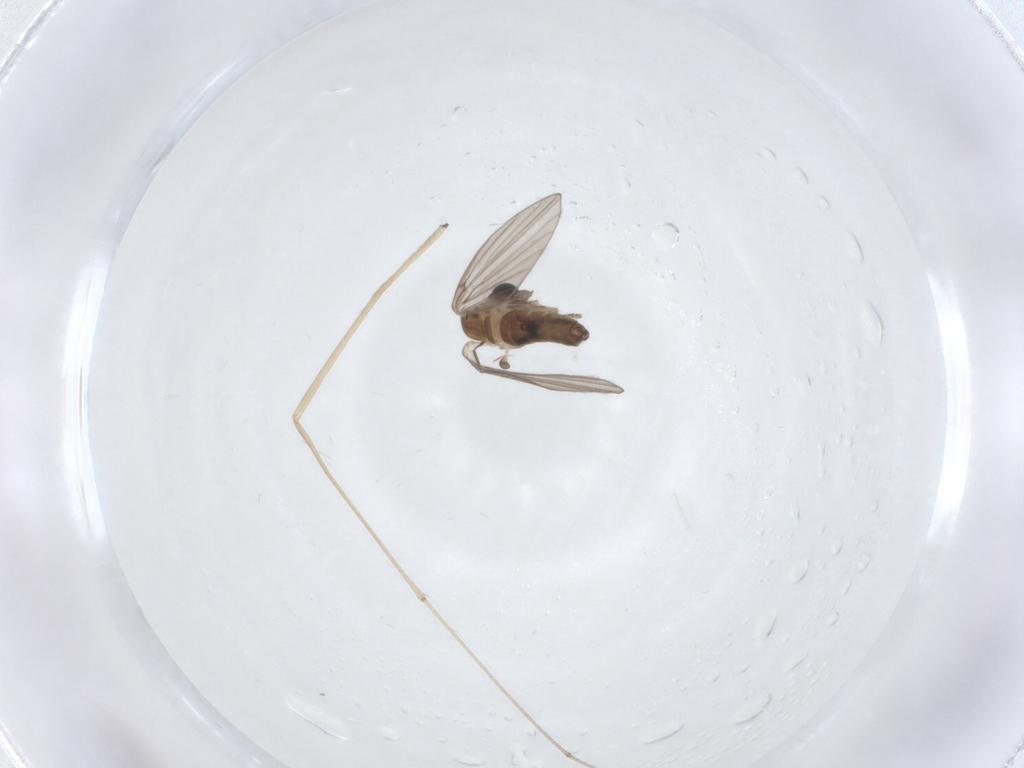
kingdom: Animalia
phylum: Arthropoda
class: Insecta
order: Diptera
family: Limoniidae
